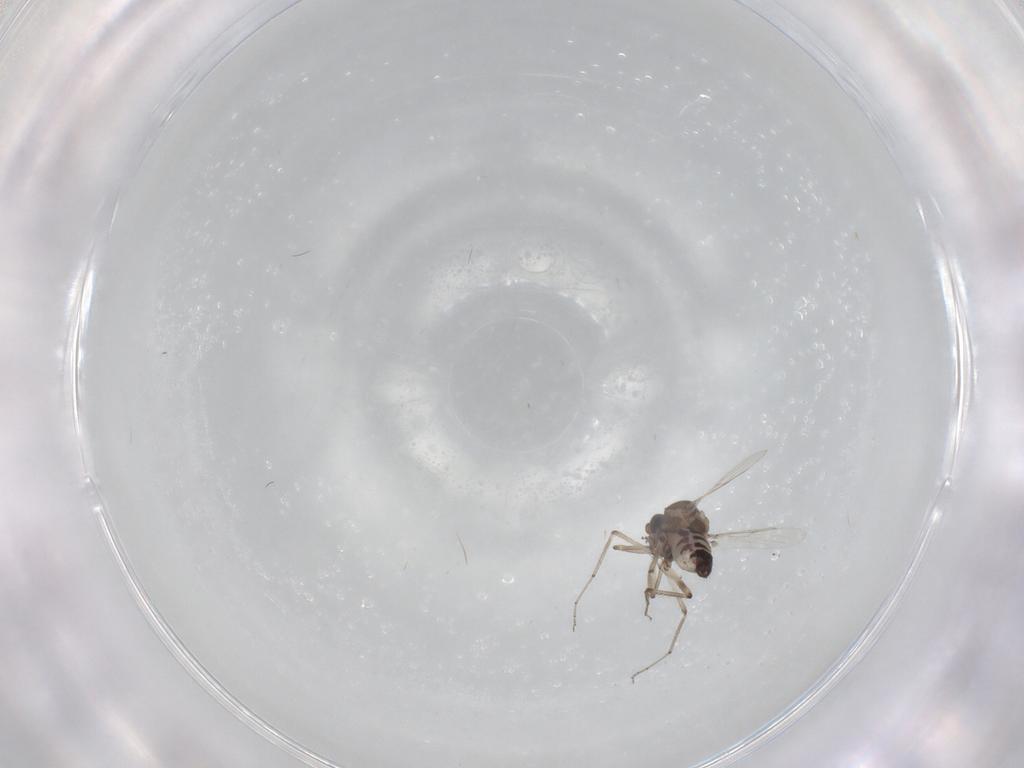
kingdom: Animalia
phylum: Arthropoda
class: Insecta
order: Diptera
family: Ceratopogonidae
